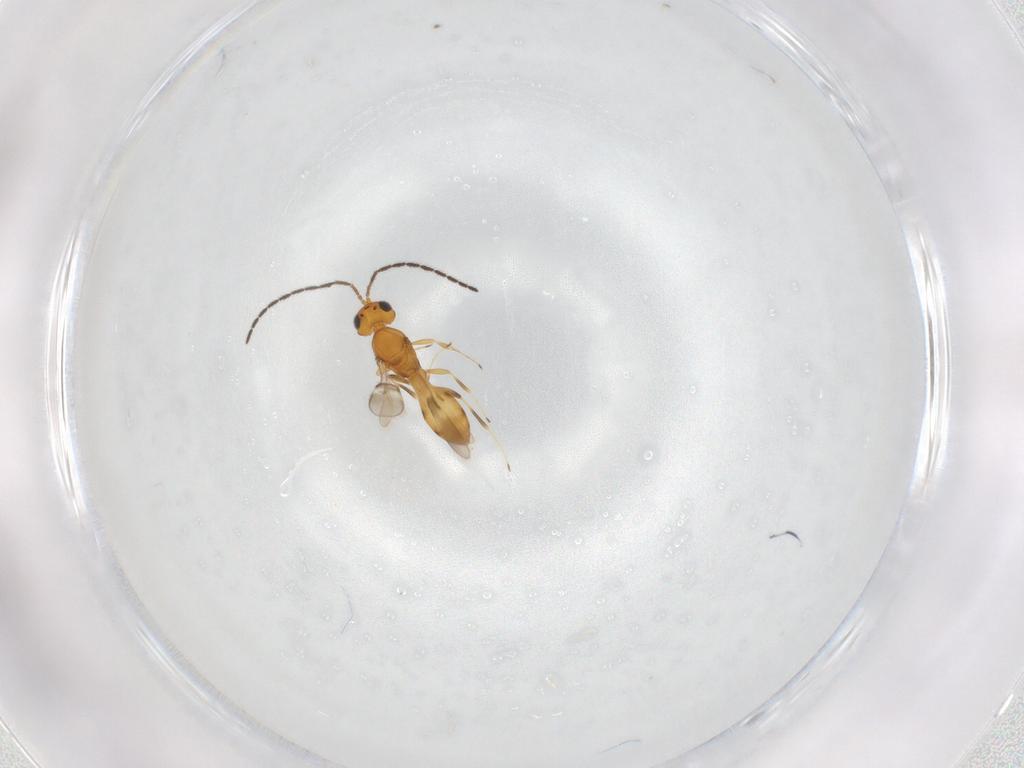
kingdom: Animalia
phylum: Arthropoda
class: Insecta
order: Hymenoptera
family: Scelionidae
